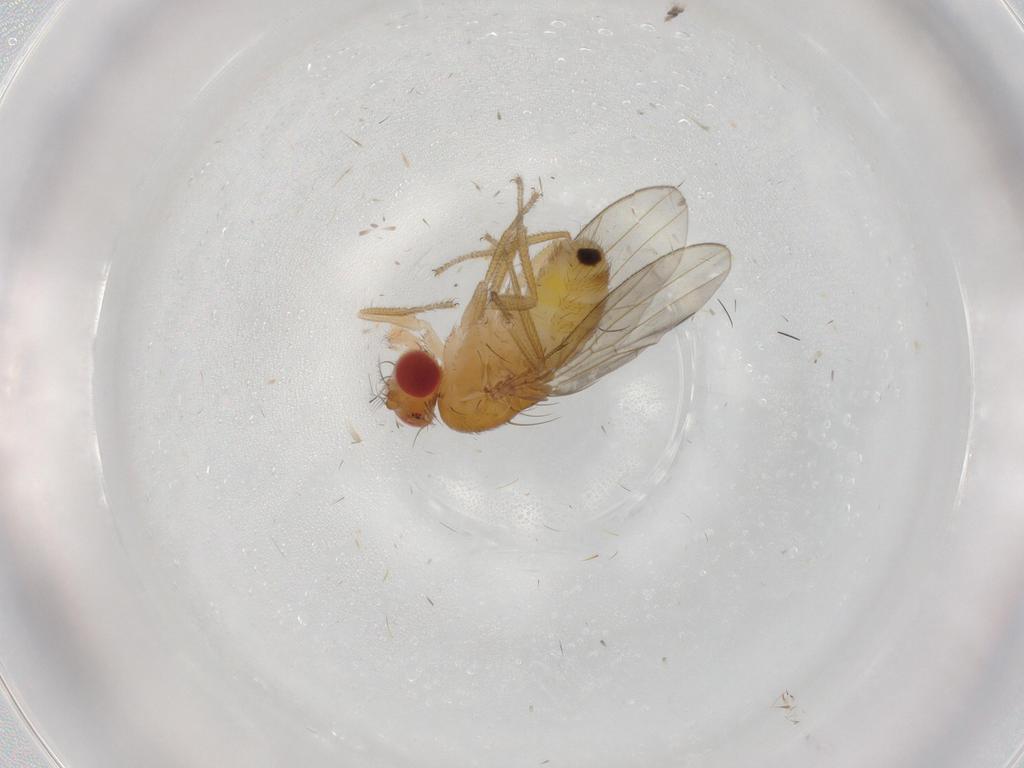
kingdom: Animalia
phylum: Arthropoda
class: Insecta
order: Diptera
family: Drosophilidae
